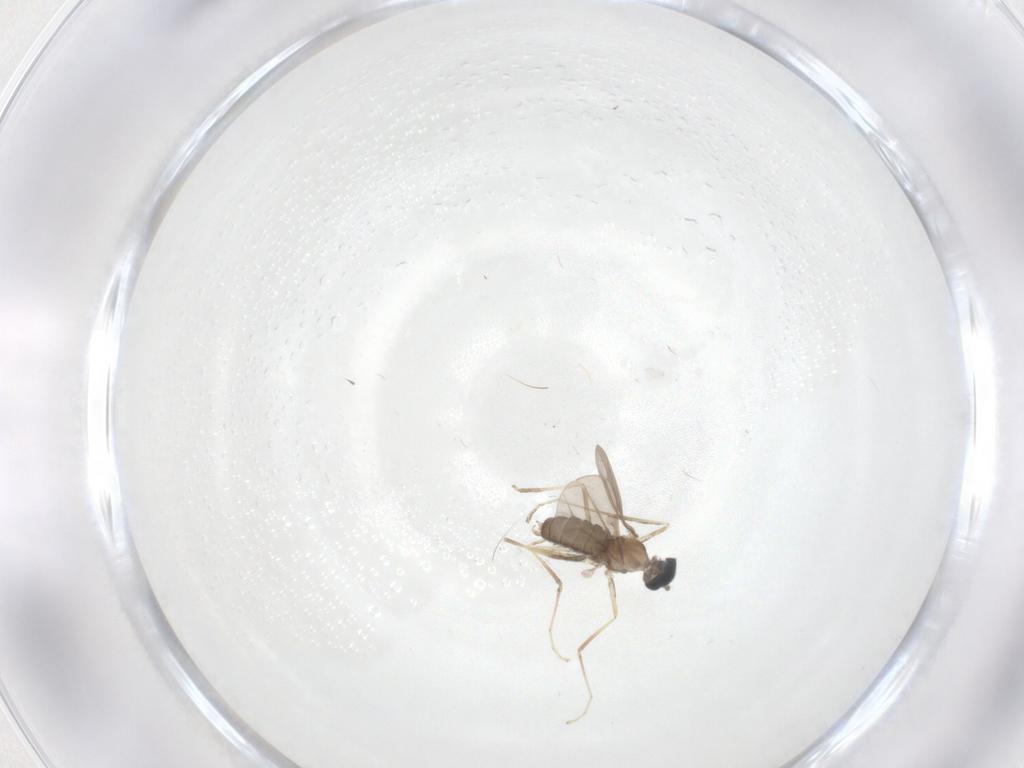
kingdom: Animalia
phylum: Arthropoda
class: Insecta
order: Diptera
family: Cecidomyiidae
